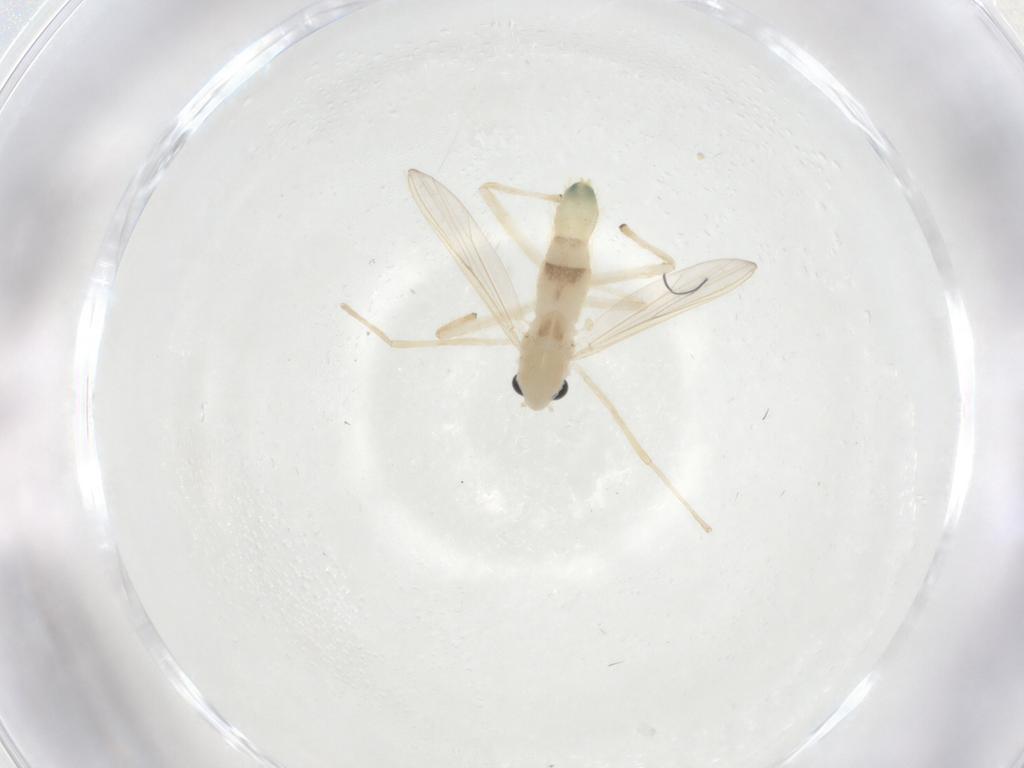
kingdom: Animalia
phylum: Arthropoda
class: Insecta
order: Diptera
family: Chironomidae
